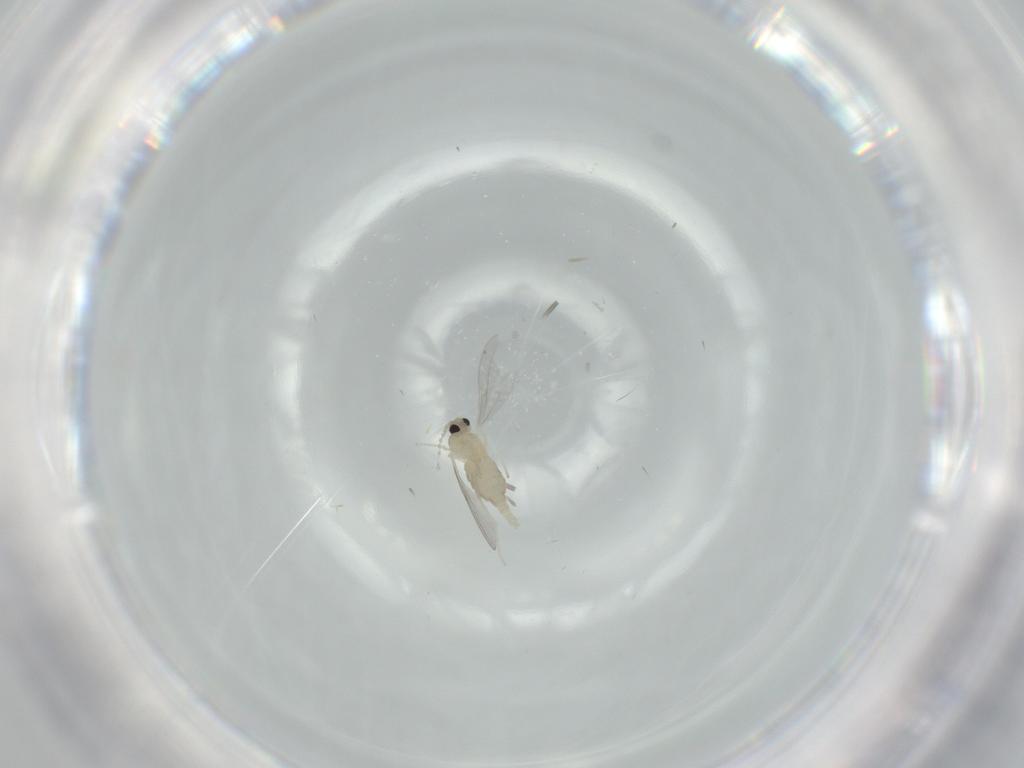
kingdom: Animalia
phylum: Arthropoda
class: Insecta
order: Diptera
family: Cecidomyiidae
